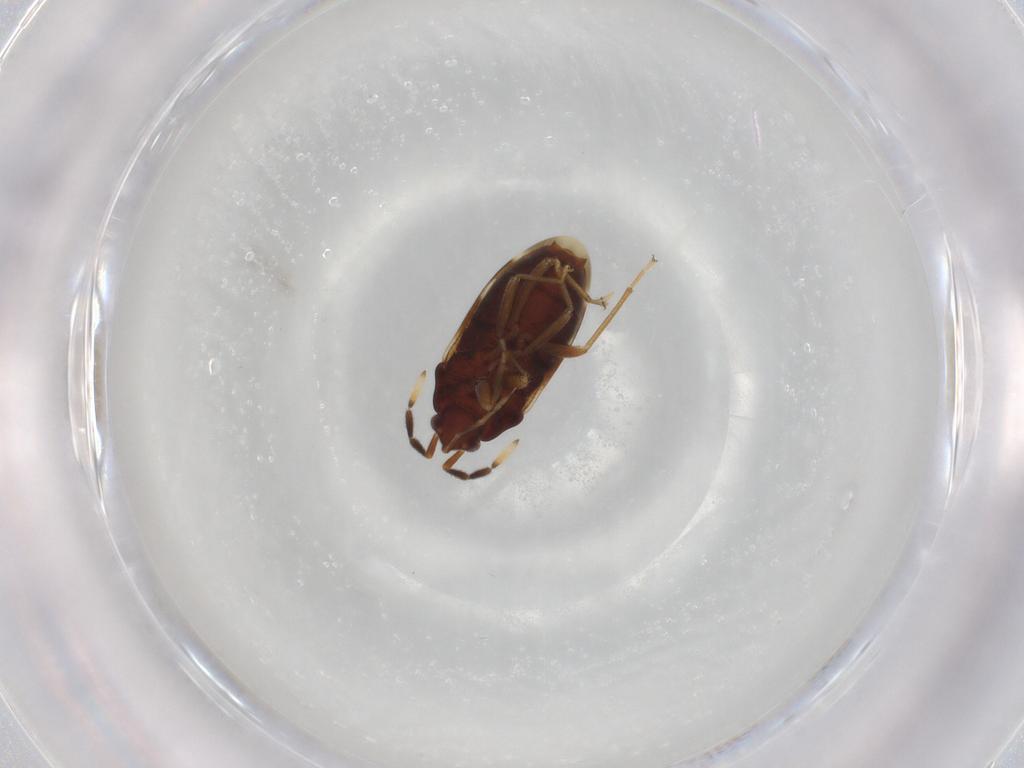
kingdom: Animalia
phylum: Arthropoda
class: Insecta
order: Hemiptera
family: Rhyparochromidae
